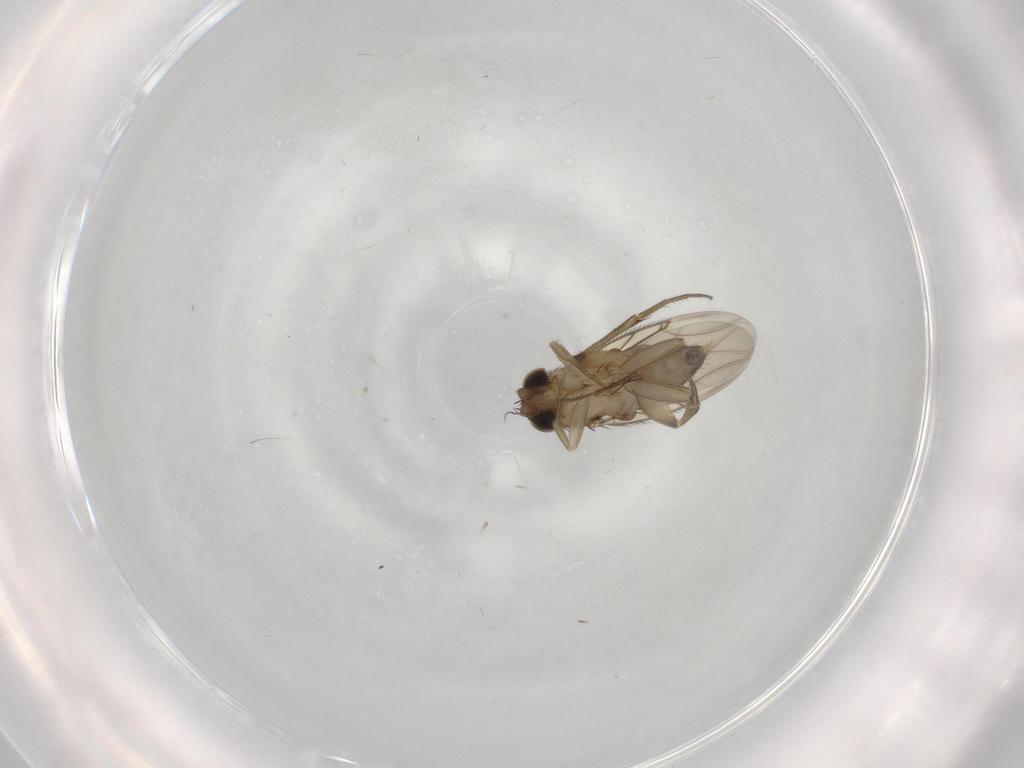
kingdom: Animalia
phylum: Arthropoda
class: Insecta
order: Diptera
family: Phoridae
